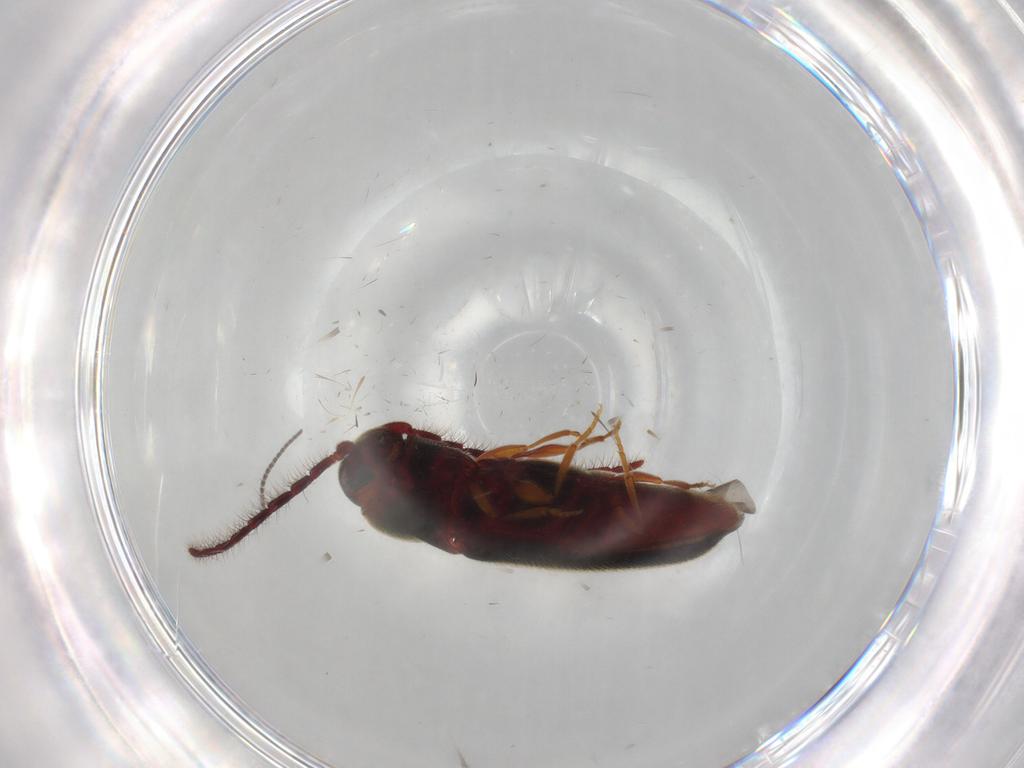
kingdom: Animalia
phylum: Arthropoda
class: Insecta
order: Coleoptera
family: Eucnemidae
